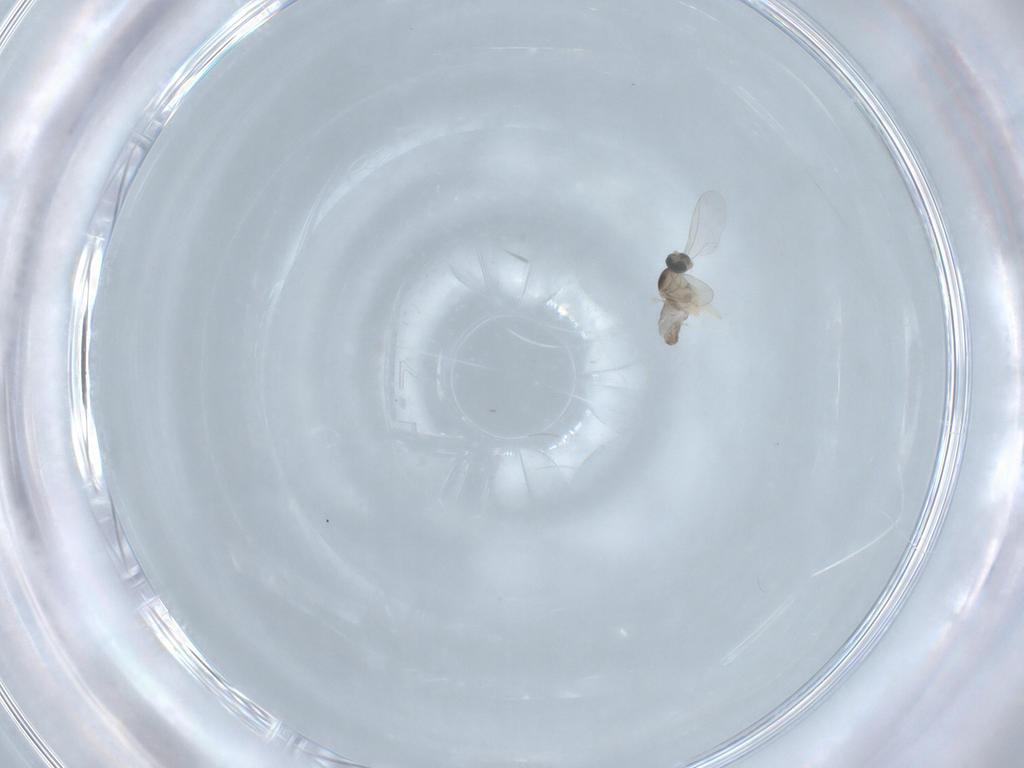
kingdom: Animalia
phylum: Arthropoda
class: Insecta
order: Diptera
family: Cecidomyiidae
